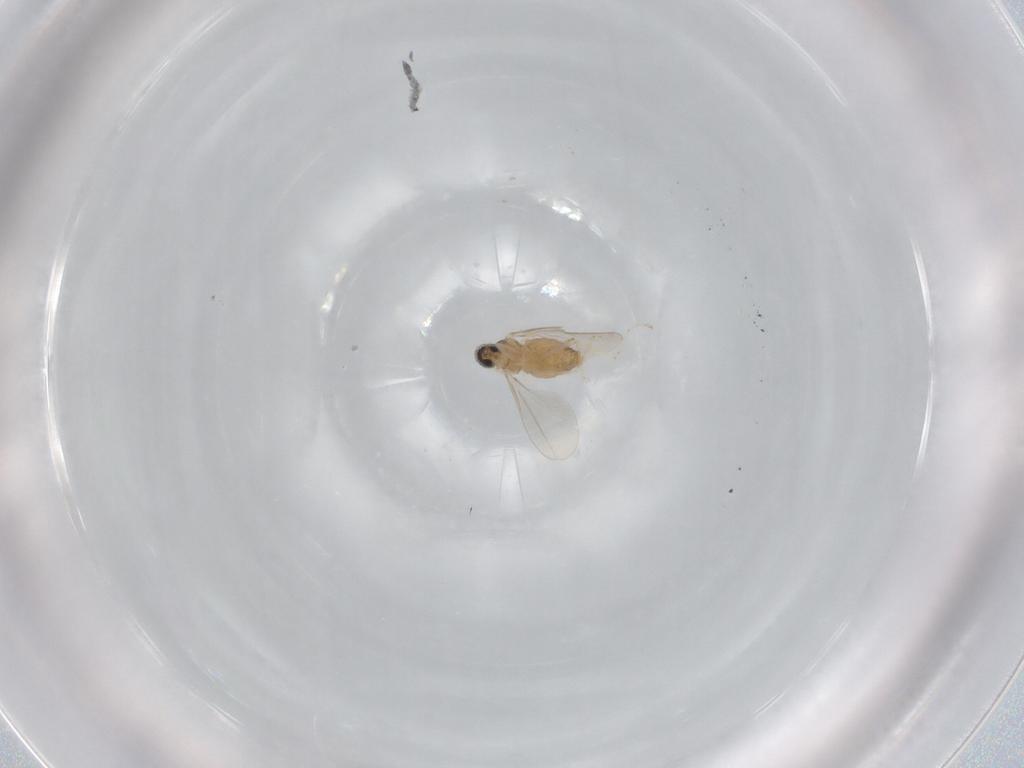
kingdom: Animalia
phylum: Arthropoda
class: Insecta
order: Diptera
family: Cecidomyiidae
